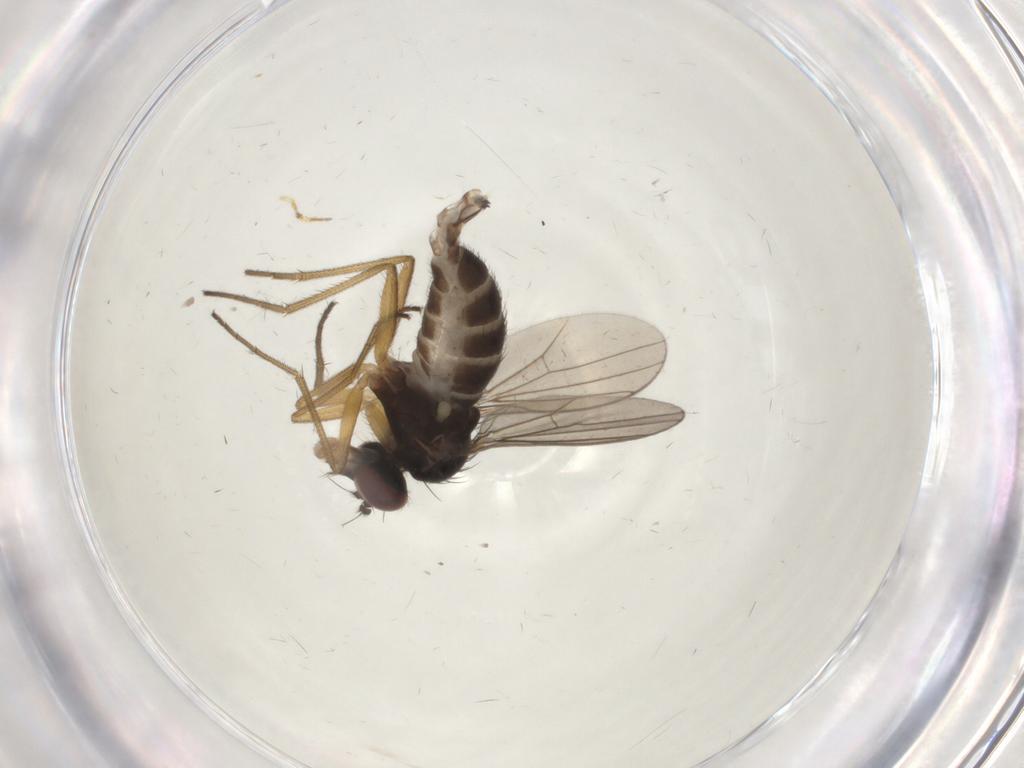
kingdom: Animalia
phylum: Arthropoda
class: Insecta
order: Diptera
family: Dolichopodidae
